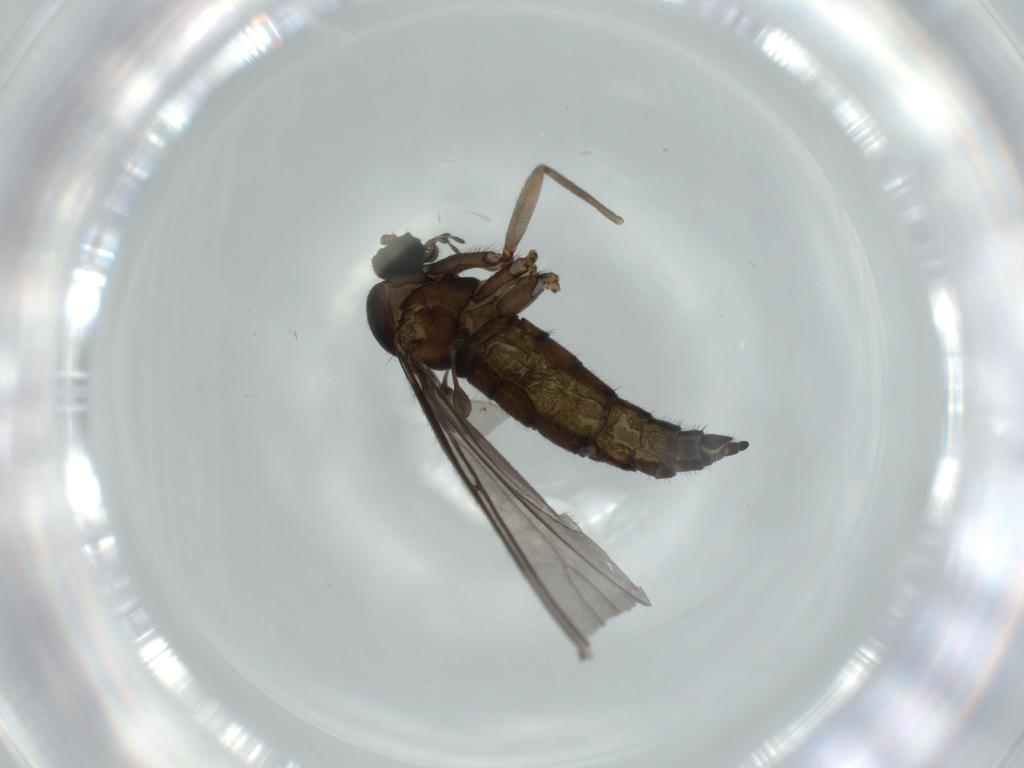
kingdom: Animalia
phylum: Arthropoda
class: Insecta
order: Diptera
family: Sciaridae
